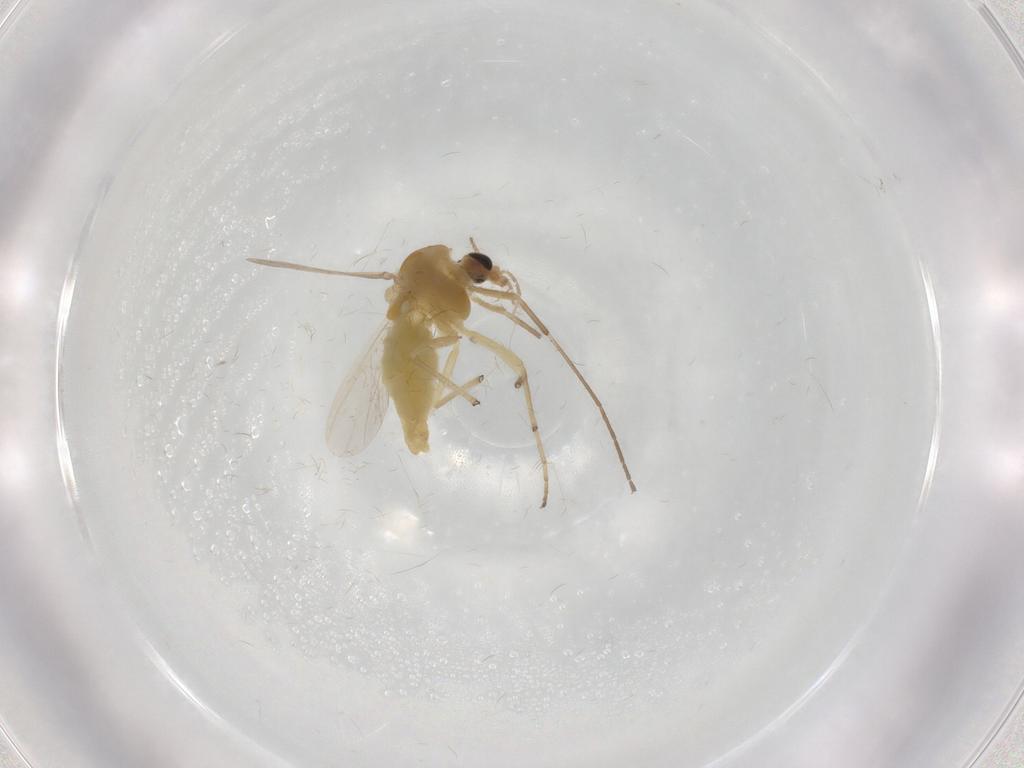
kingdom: Animalia
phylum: Arthropoda
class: Insecta
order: Diptera
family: Chironomidae
